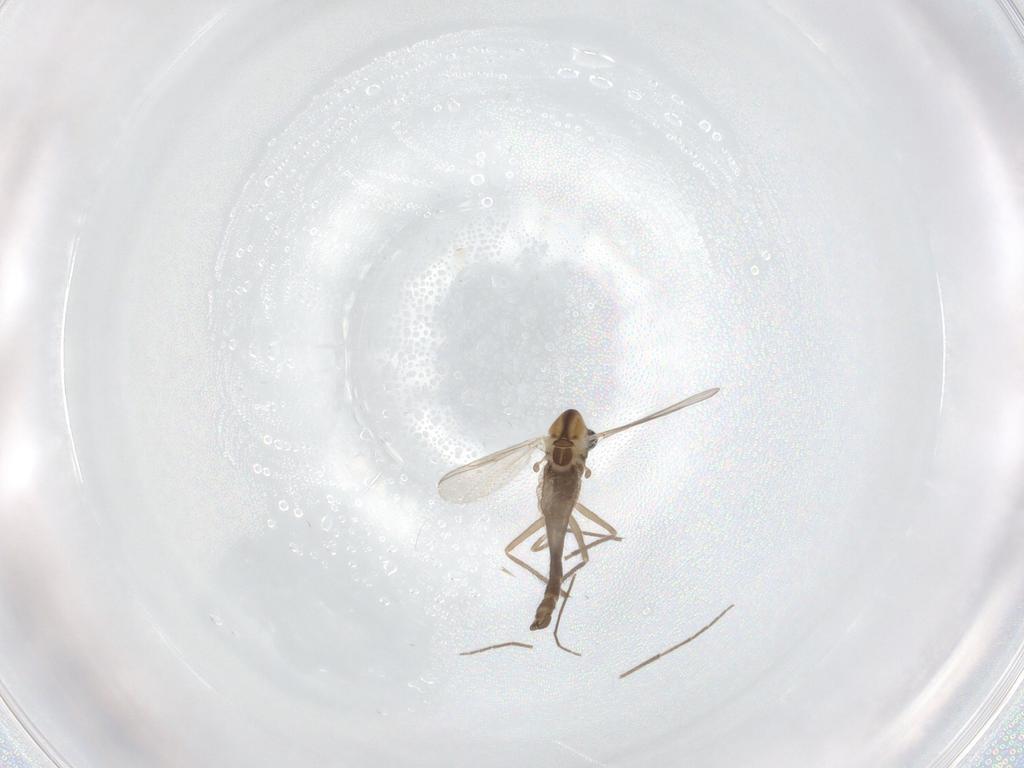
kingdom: Animalia
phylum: Arthropoda
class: Insecta
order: Diptera
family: Chironomidae
